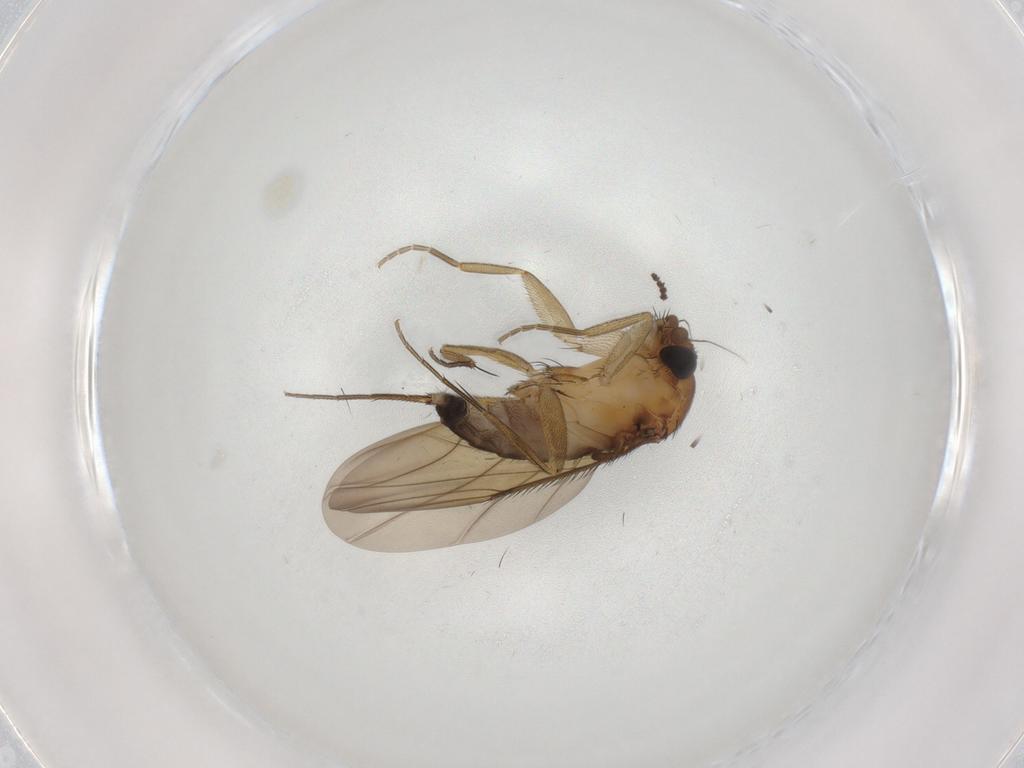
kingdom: Animalia
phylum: Arthropoda
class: Insecta
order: Diptera
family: Phoridae
